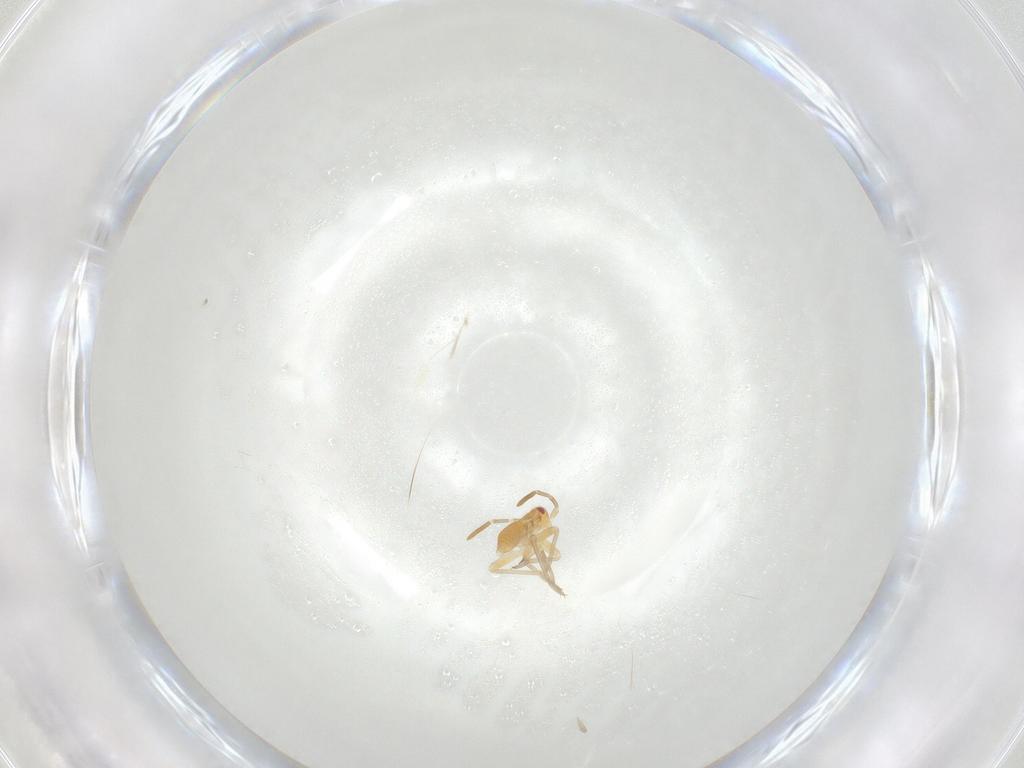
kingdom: Animalia
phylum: Arthropoda
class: Insecta
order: Hemiptera
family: Miridae
